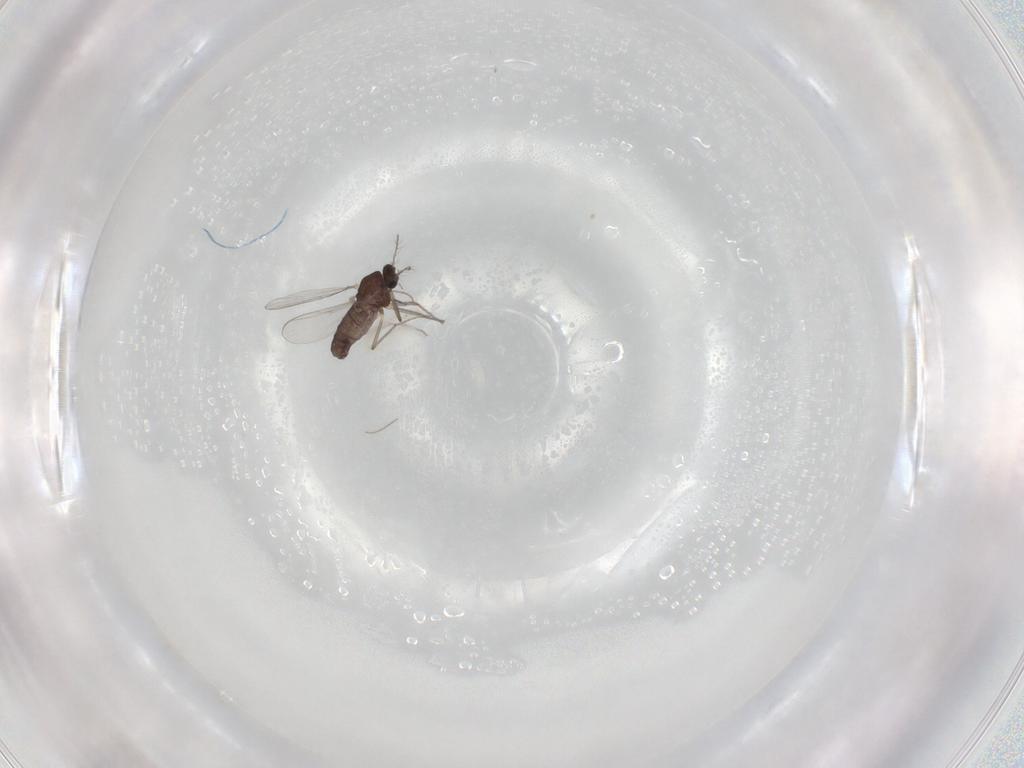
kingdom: Animalia
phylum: Arthropoda
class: Insecta
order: Diptera
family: Chironomidae
